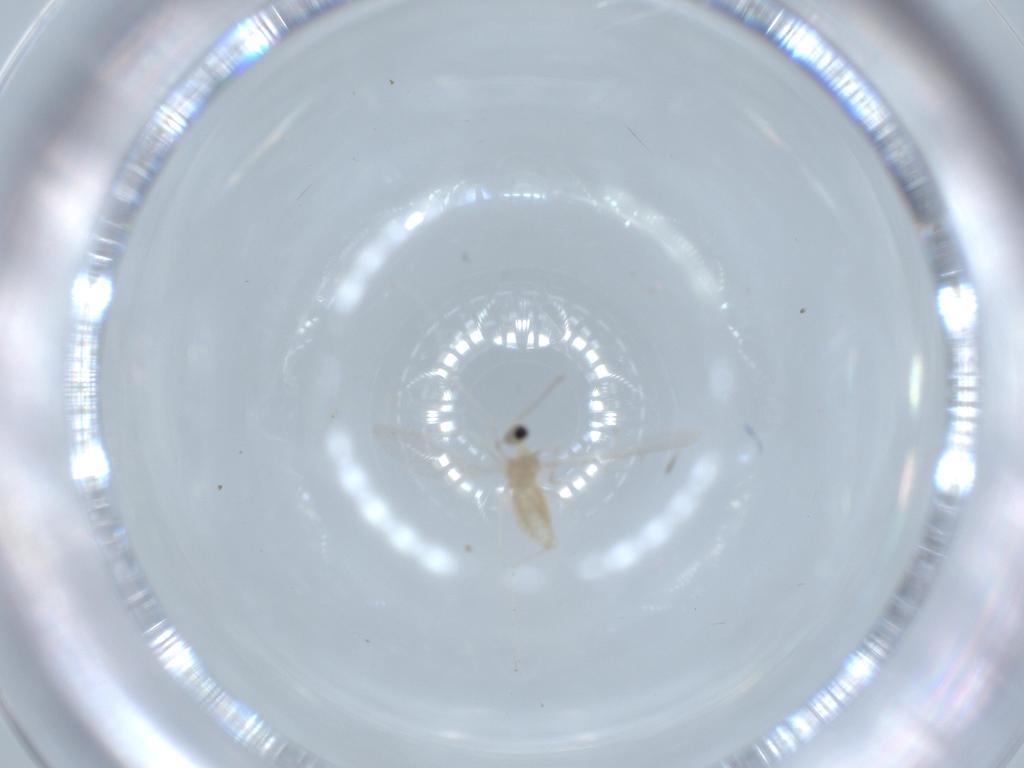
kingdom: Animalia
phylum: Arthropoda
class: Insecta
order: Diptera
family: Cecidomyiidae
